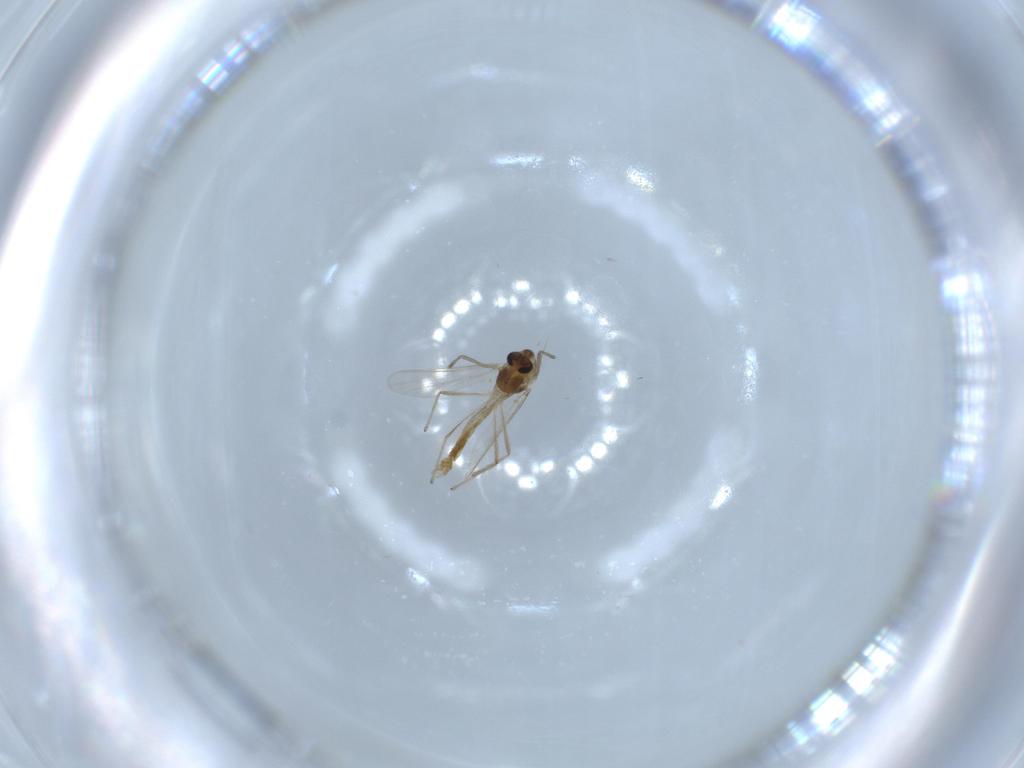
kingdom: Animalia
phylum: Arthropoda
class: Insecta
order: Diptera
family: Chironomidae
